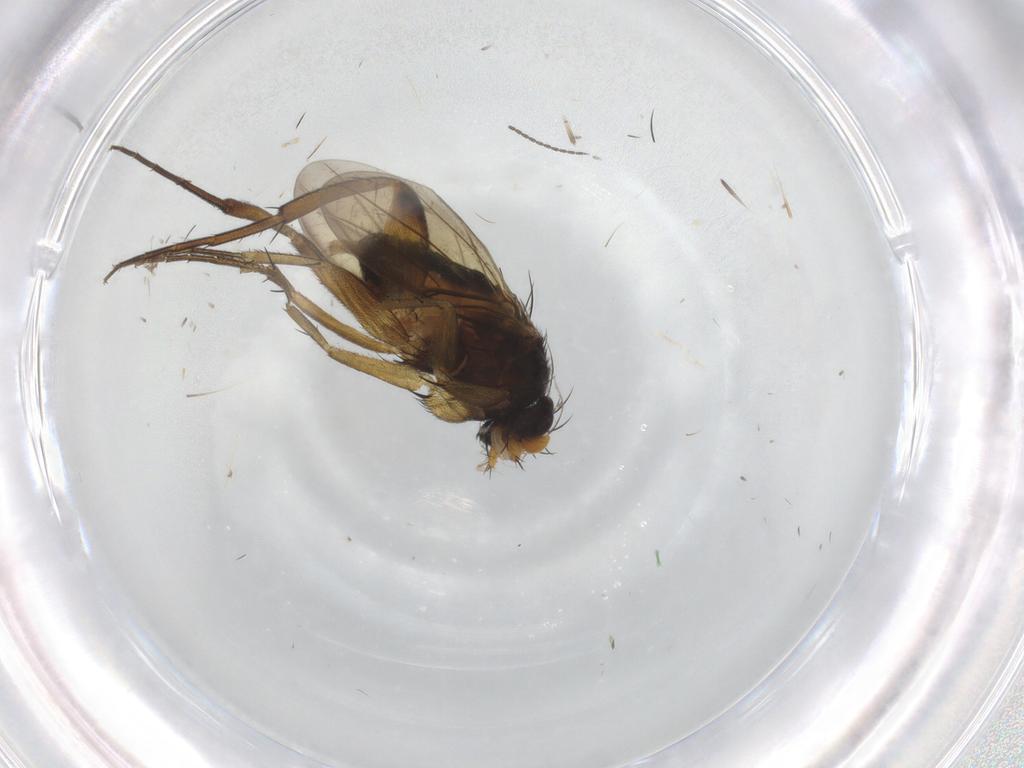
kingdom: Animalia
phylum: Arthropoda
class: Insecta
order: Diptera
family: Phoridae
